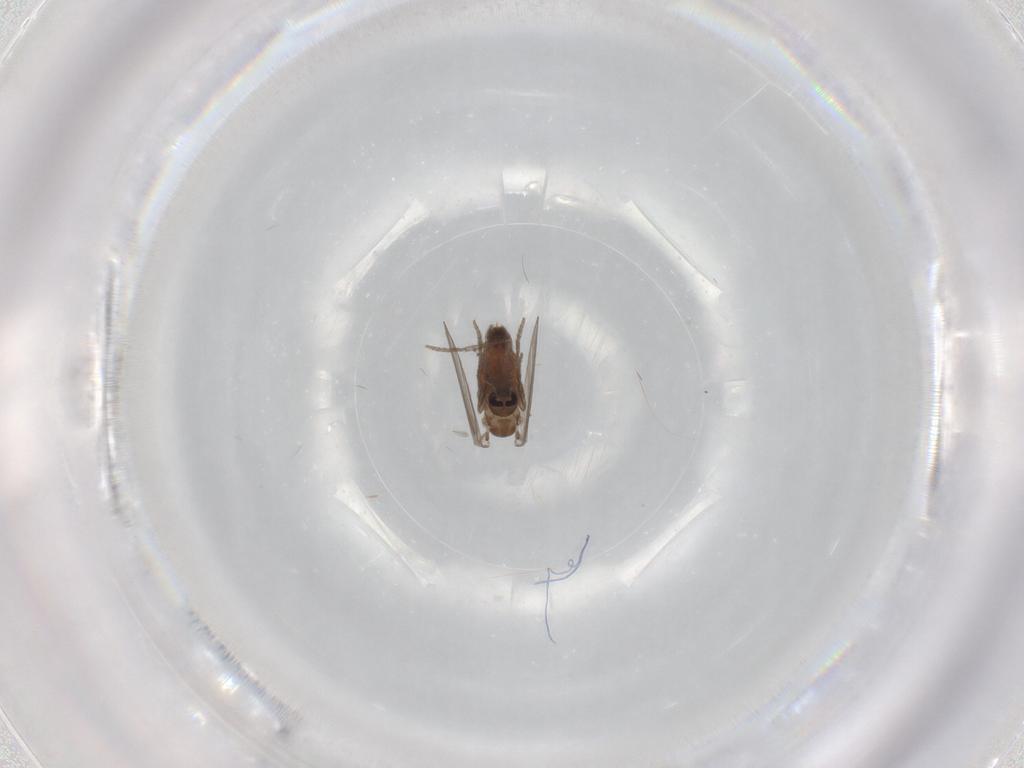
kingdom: Animalia
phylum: Arthropoda
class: Insecta
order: Diptera
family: Psychodidae
